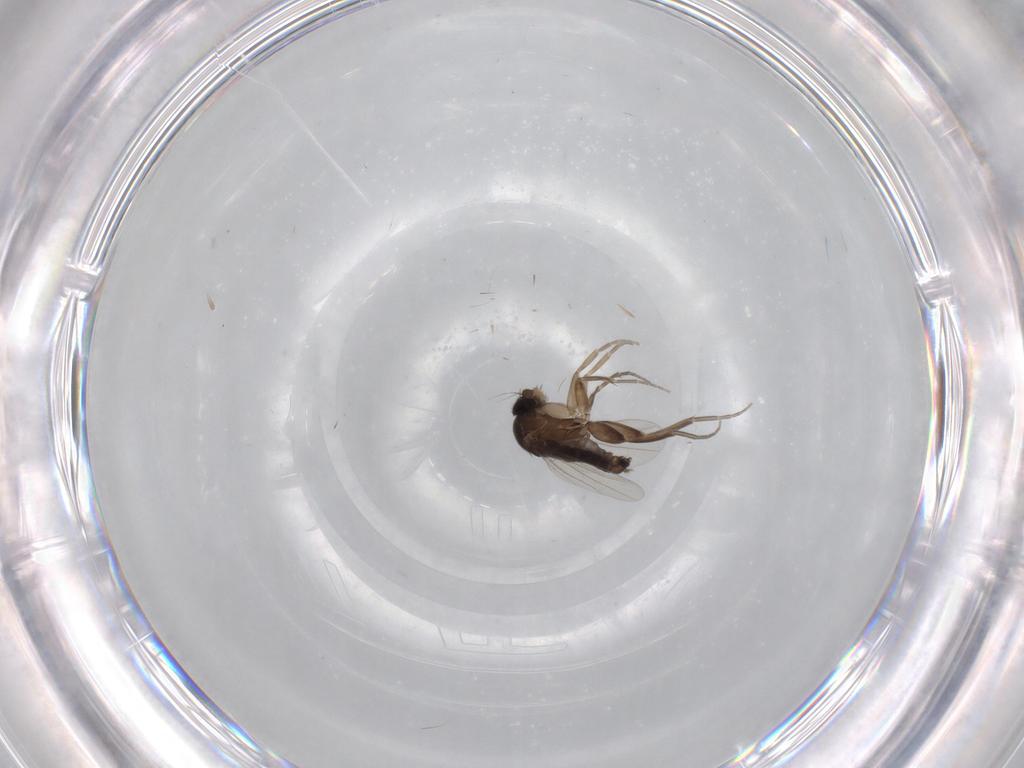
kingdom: Animalia
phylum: Arthropoda
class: Insecta
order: Diptera
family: Phoridae
